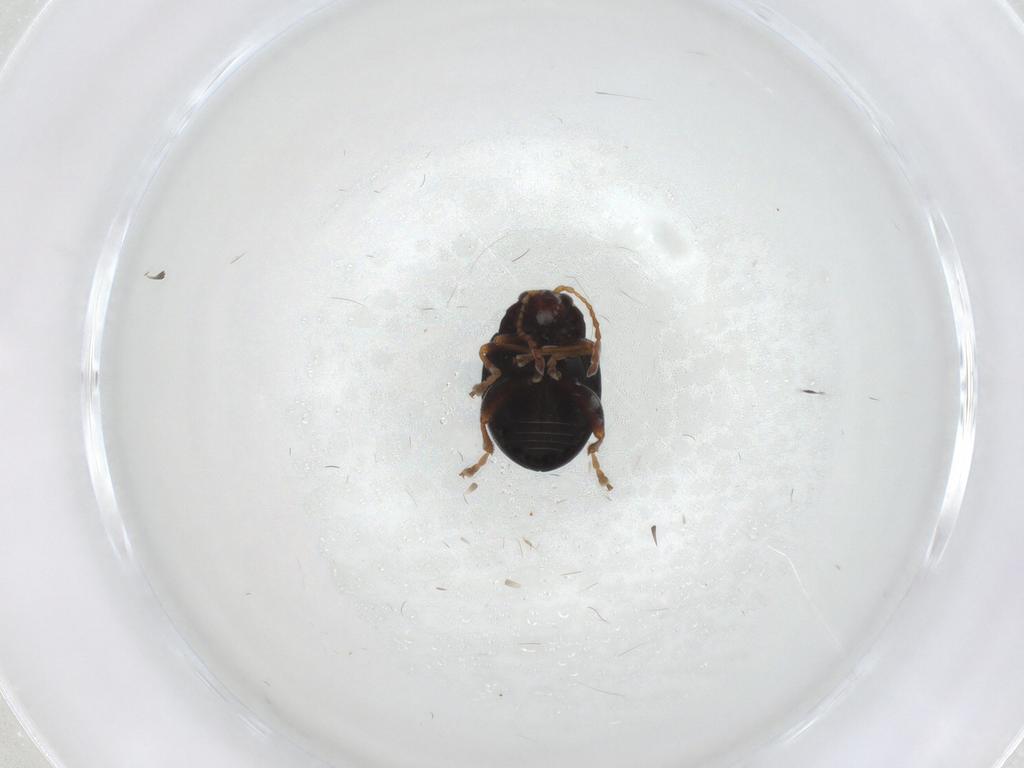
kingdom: Animalia
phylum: Arthropoda
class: Insecta
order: Coleoptera
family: Chrysomelidae
